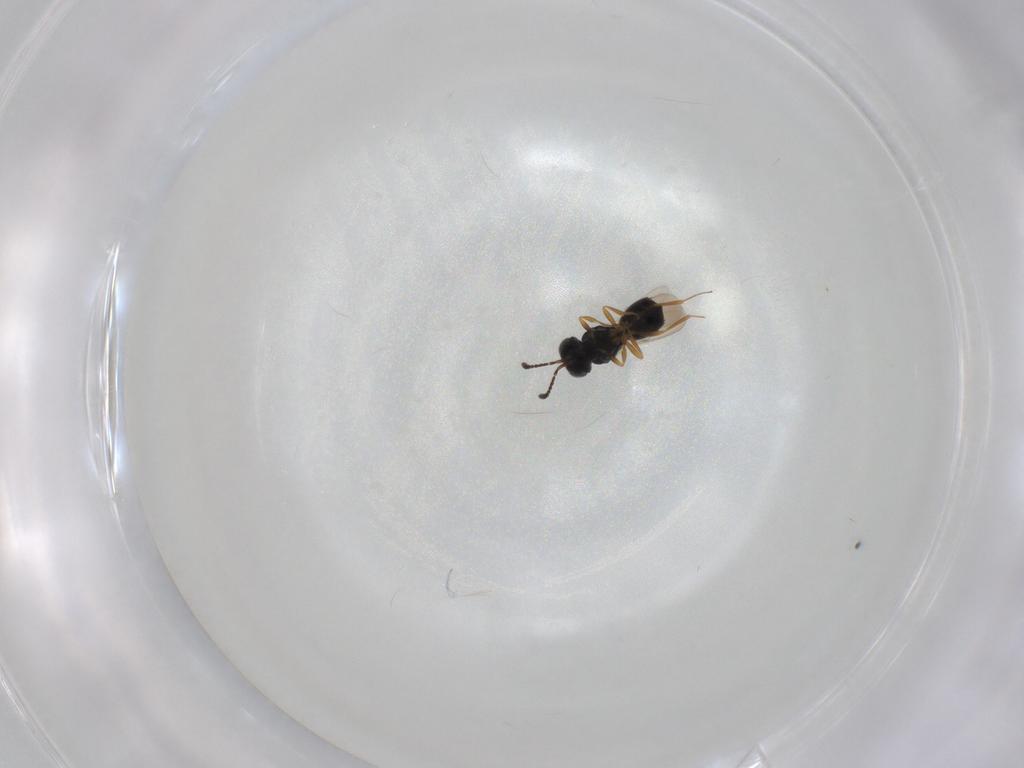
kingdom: Animalia
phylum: Arthropoda
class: Insecta
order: Hymenoptera
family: Scelionidae
